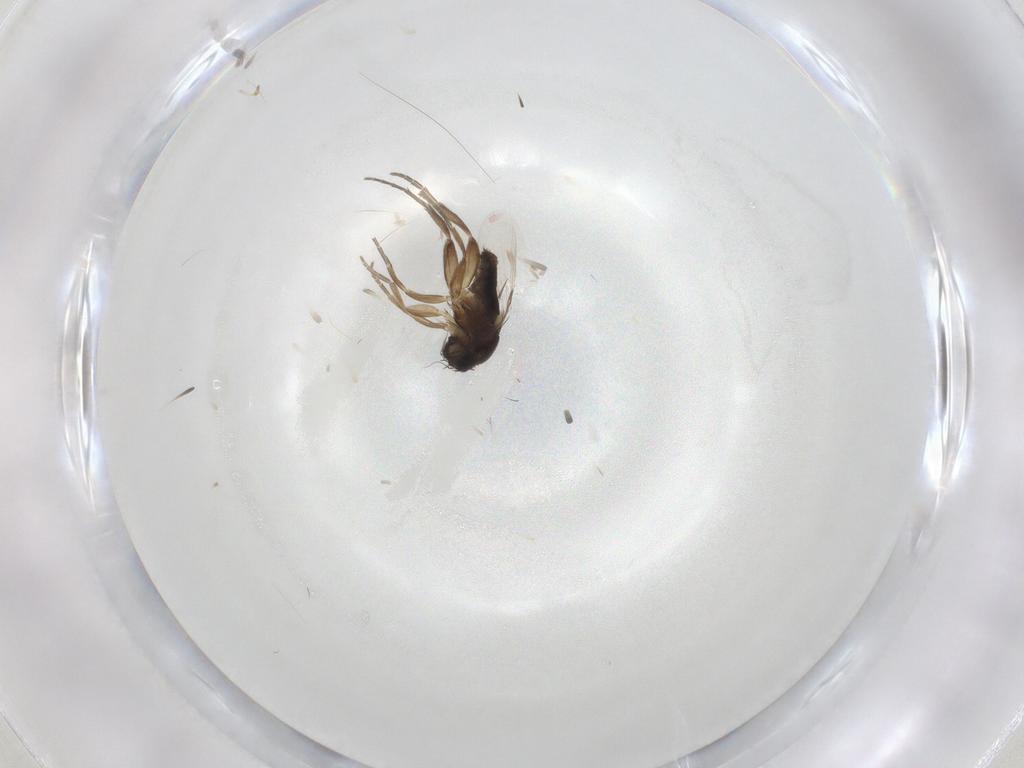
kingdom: Animalia
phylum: Arthropoda
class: Insecta
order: Diptera
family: Phoridae
